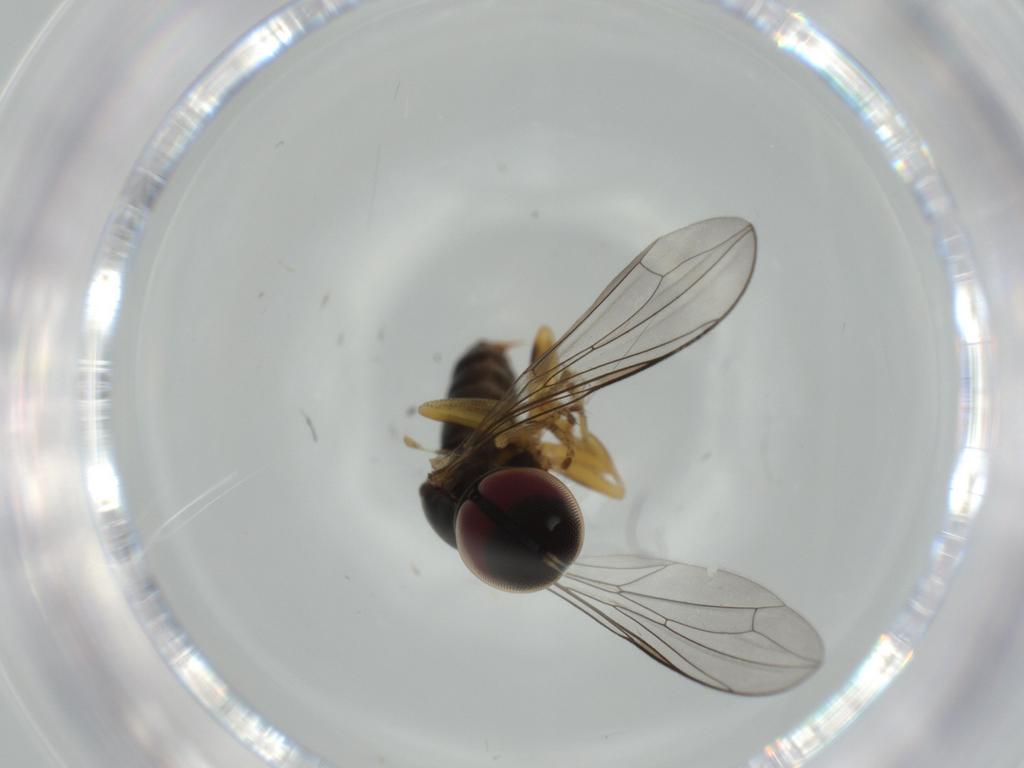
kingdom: Animalia
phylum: Arthropoda
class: Insecta
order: Diptera
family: Pipunculidae
